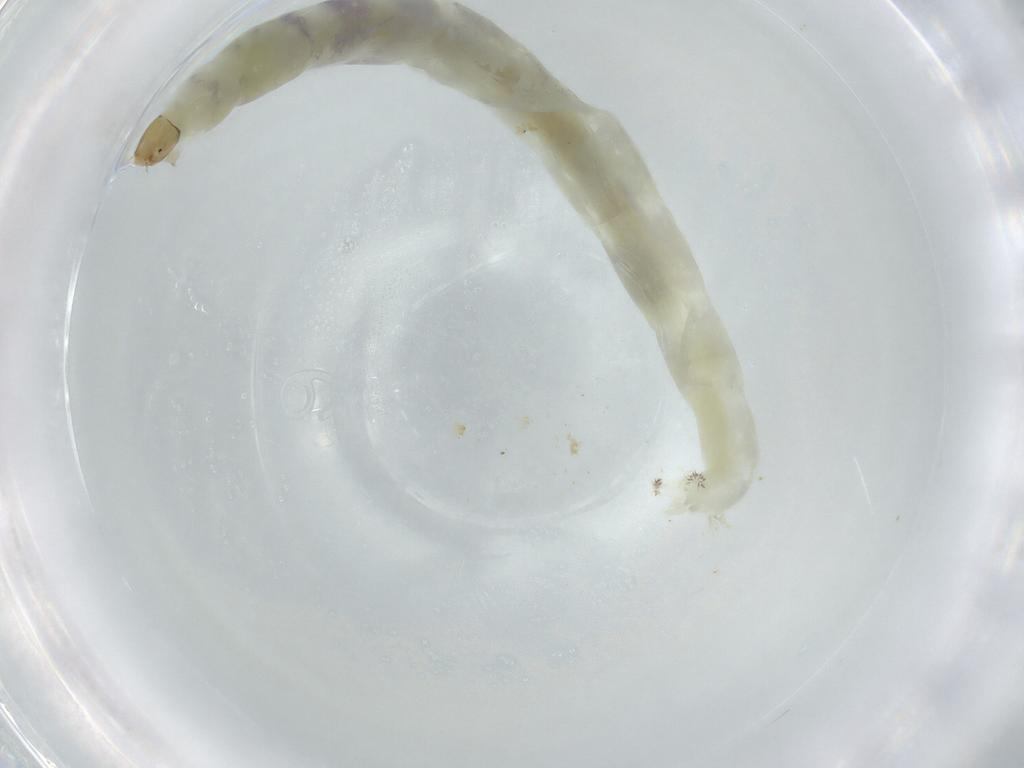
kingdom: Animalia
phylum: Arthropoda
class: Insecta
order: Diptera
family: Chironomidae
